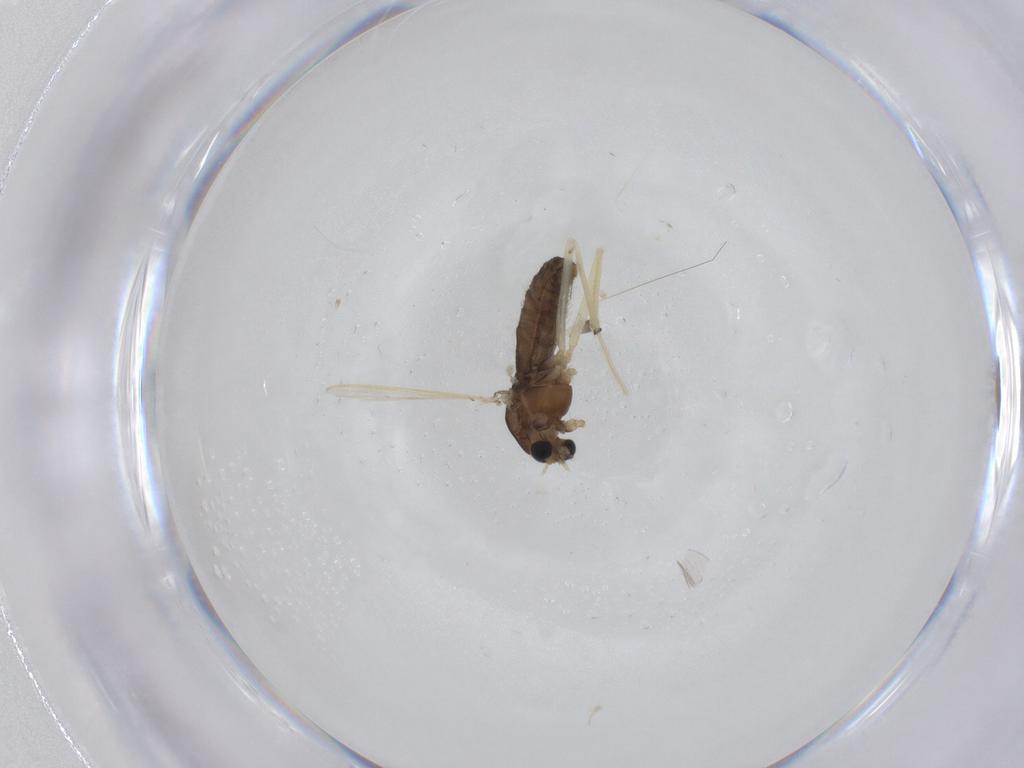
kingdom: Animalia
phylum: Arthropoda
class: Insecta
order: Diptera
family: Chironomidae
